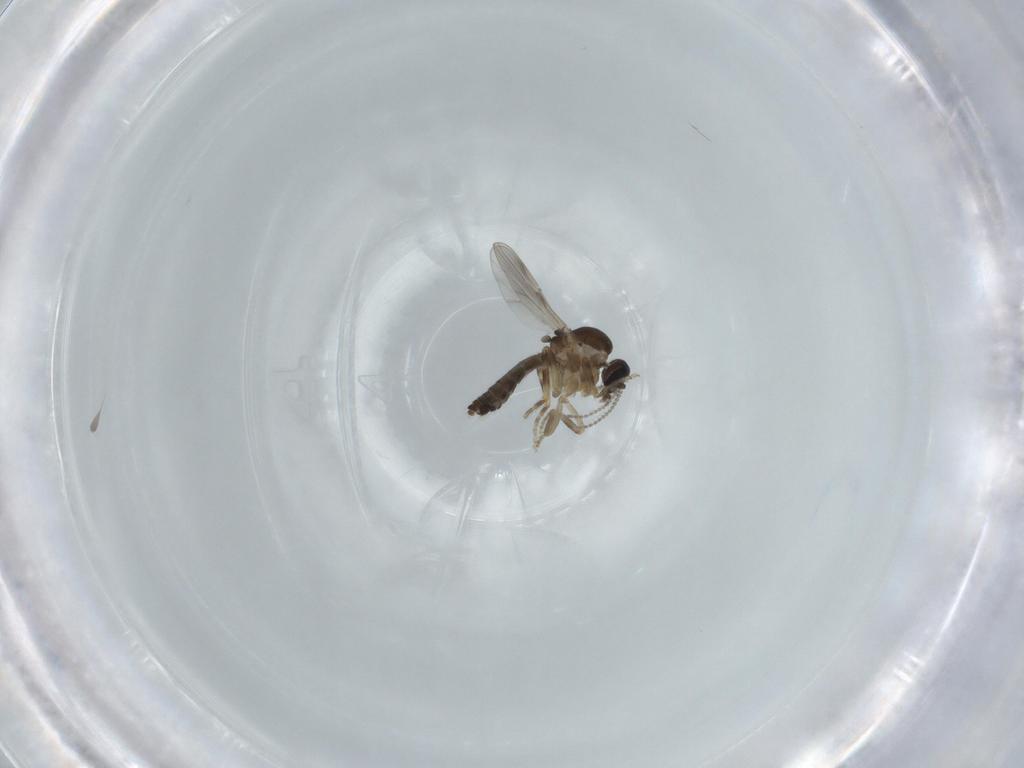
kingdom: Animalia
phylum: Arthropoda
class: Insecta
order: Diptera
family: Ceratopogonidae
